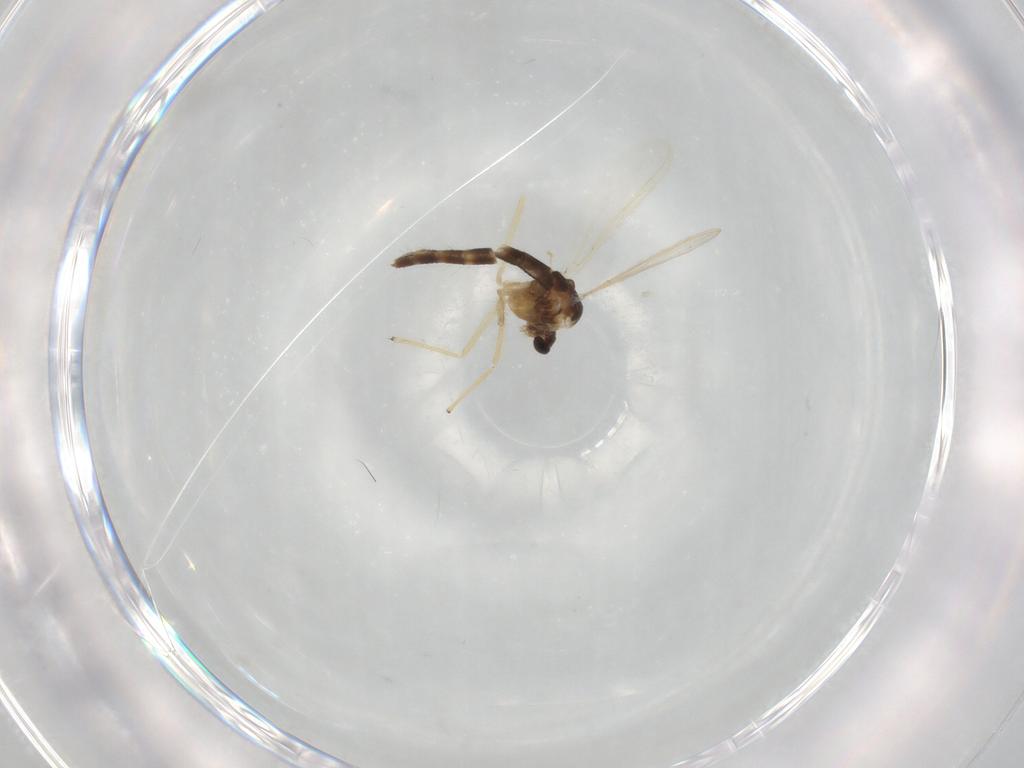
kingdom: Animalia
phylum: Arthropoda
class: Insecta
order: Diptera
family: Chironomidae
